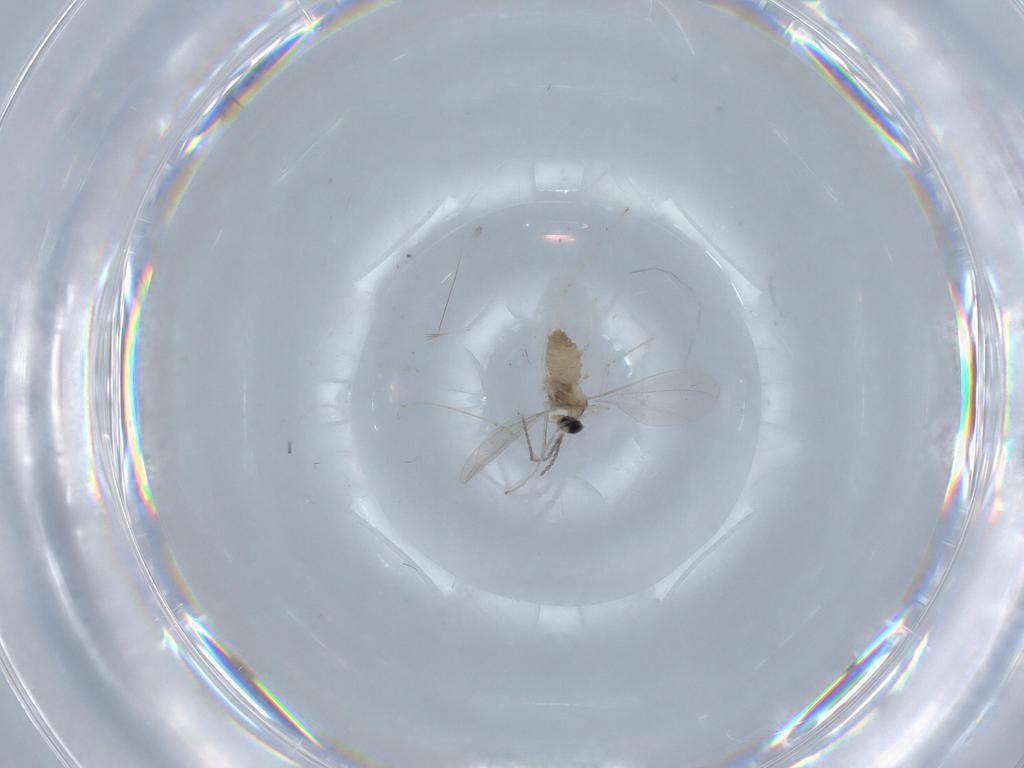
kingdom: Animalia
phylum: Arthropoda
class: Insecta
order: Diptera
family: Cecidomyiidae
